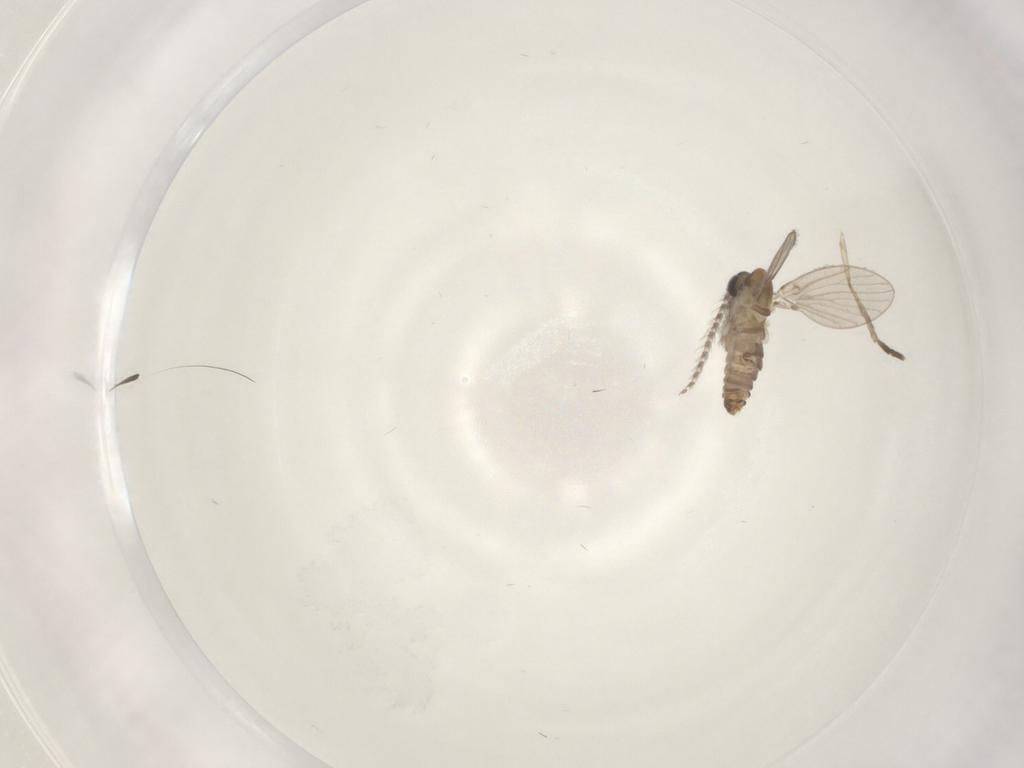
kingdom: Animalia
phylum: Arthropoda
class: Insecta
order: Diptera
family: Psychodidae
